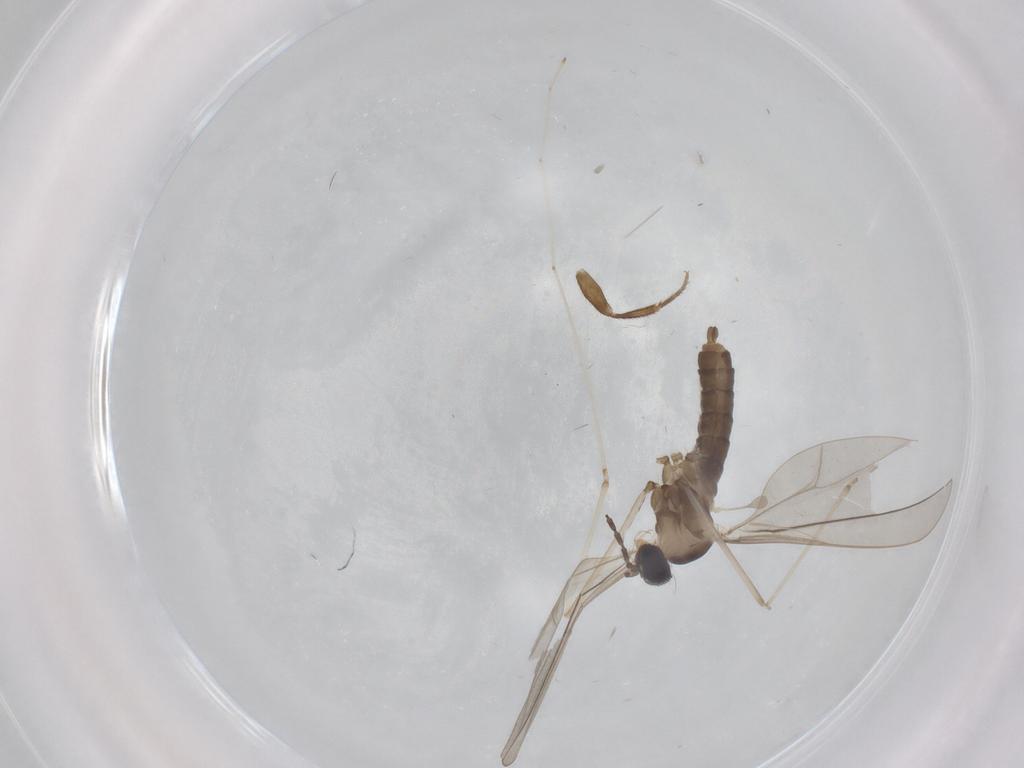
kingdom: Animalia
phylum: Arthropoda
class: Insecta
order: Diptera
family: Drosophilidae
